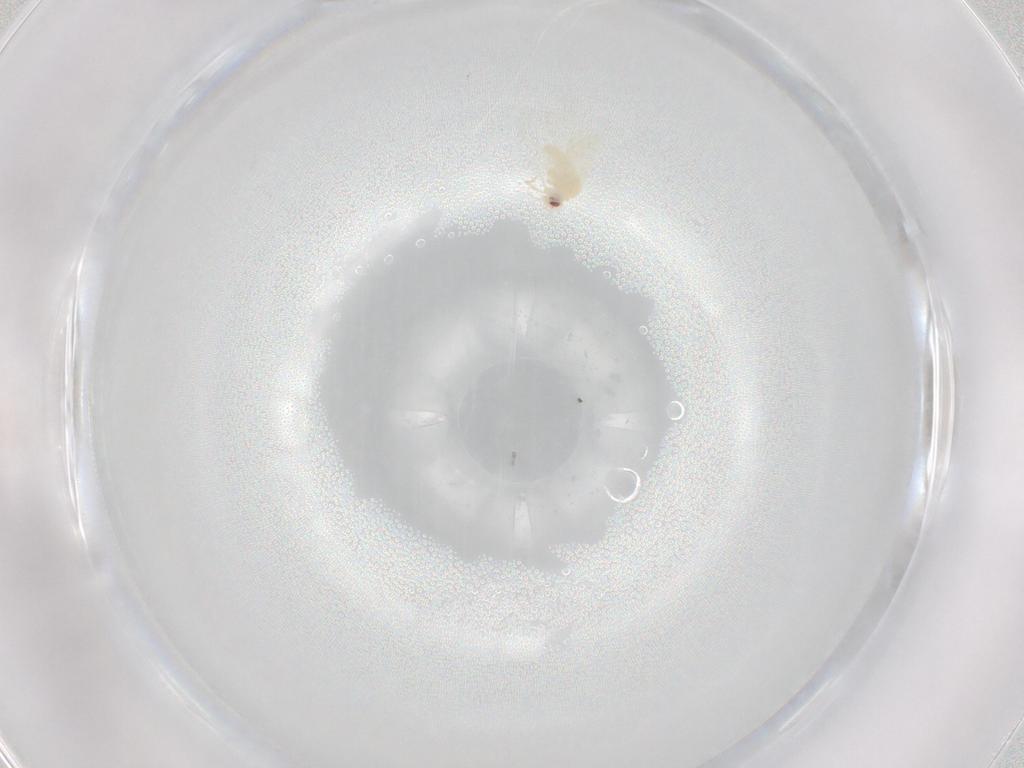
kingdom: Animalia
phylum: Arthropoda
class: Insecta
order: Hemiptera
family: Aleyrodidae
